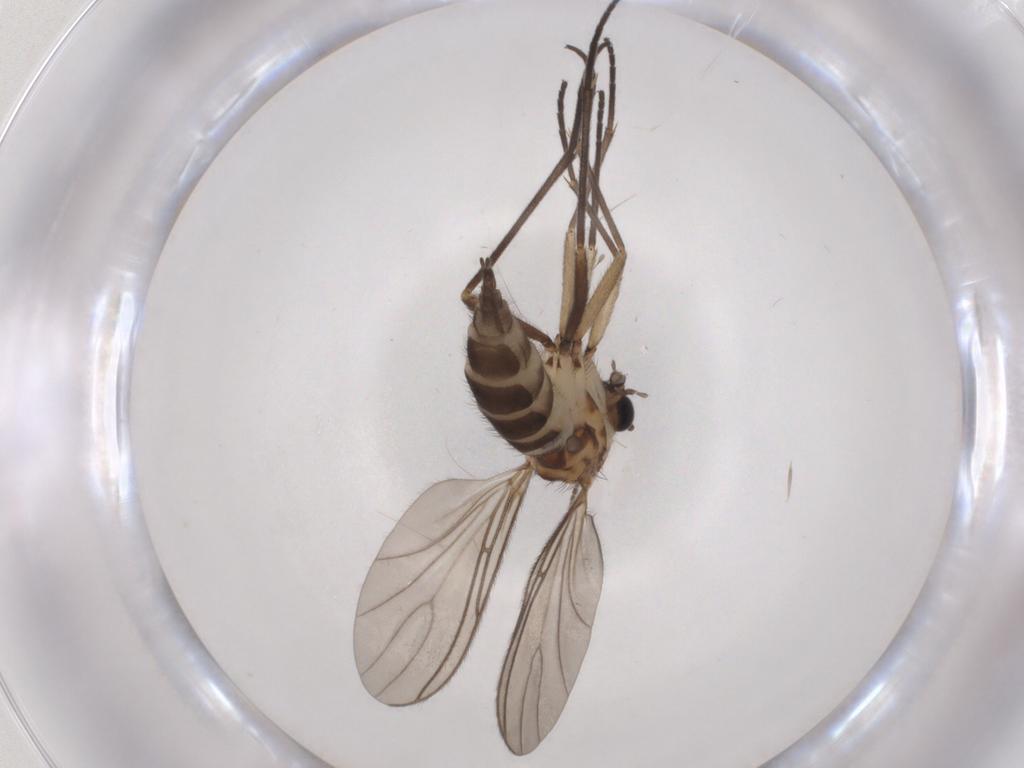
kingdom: Animalia
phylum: Arthropoda
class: Insecta
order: Diptera
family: Sciaridae
